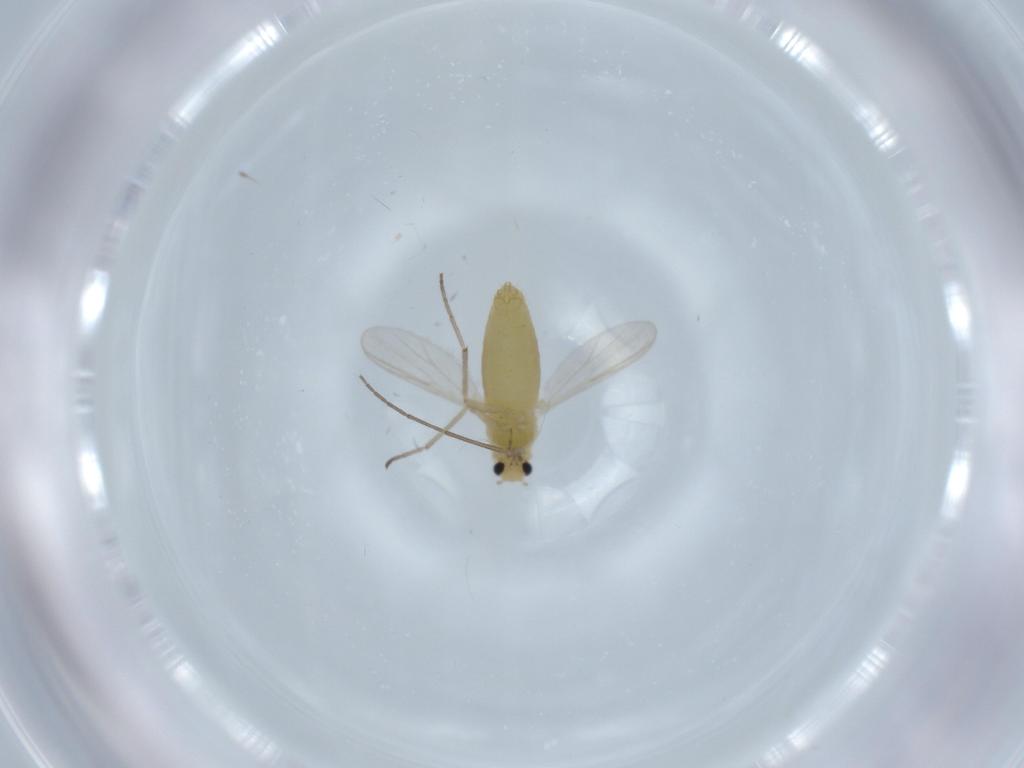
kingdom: Animalia
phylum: Arthropoda
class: Insecta
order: Diptera
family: Chironomidae
